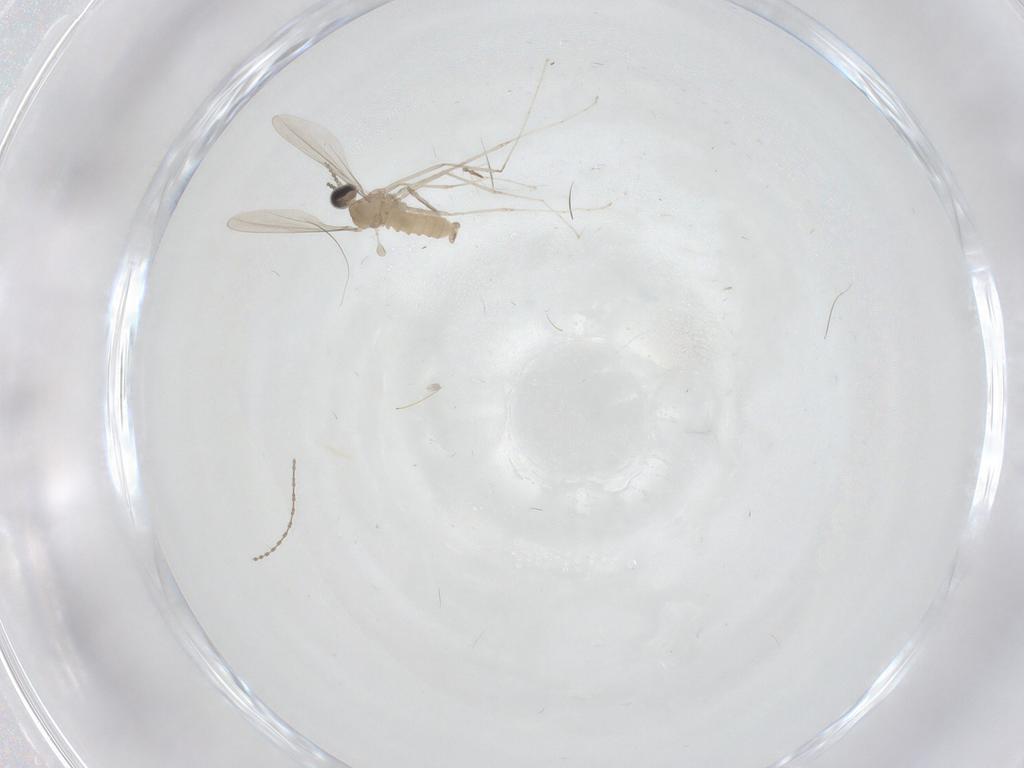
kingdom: Animalia
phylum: Arthropoda
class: Insecta
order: Diptera
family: Cecidomyiidae
